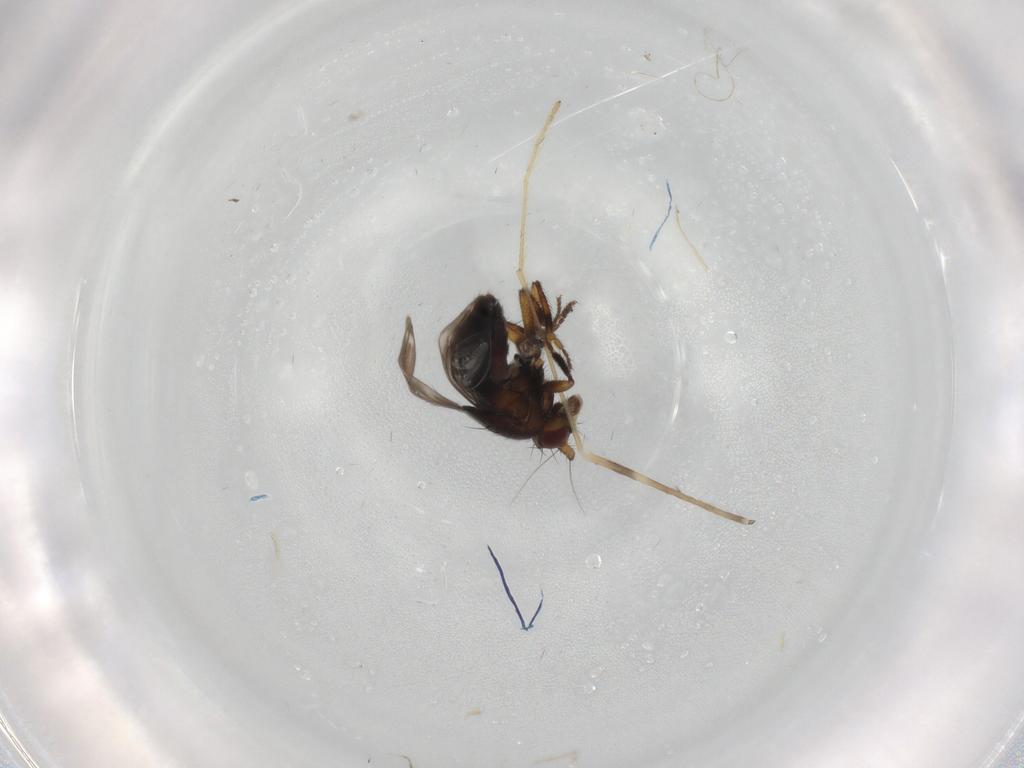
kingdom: Animalia
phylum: Arthropoda
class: Insecta
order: Diptera
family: Sphaeroceridae
